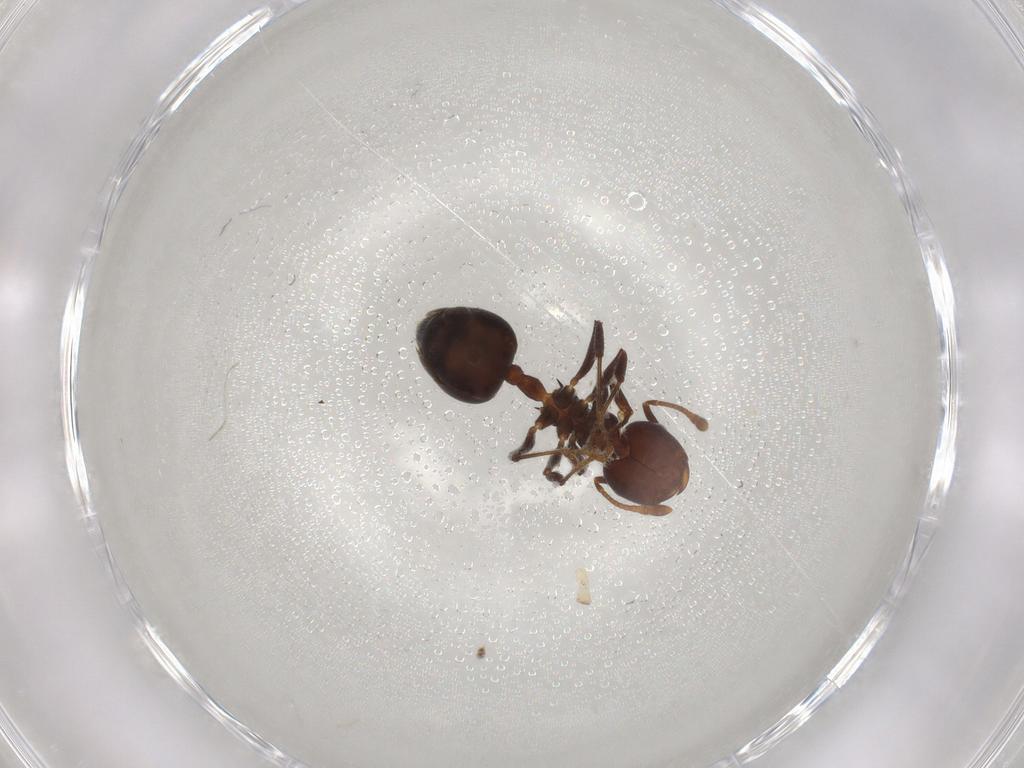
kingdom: Animalia
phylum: Arthropoda
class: Insecta
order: Hymenoptera
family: Formicidae
